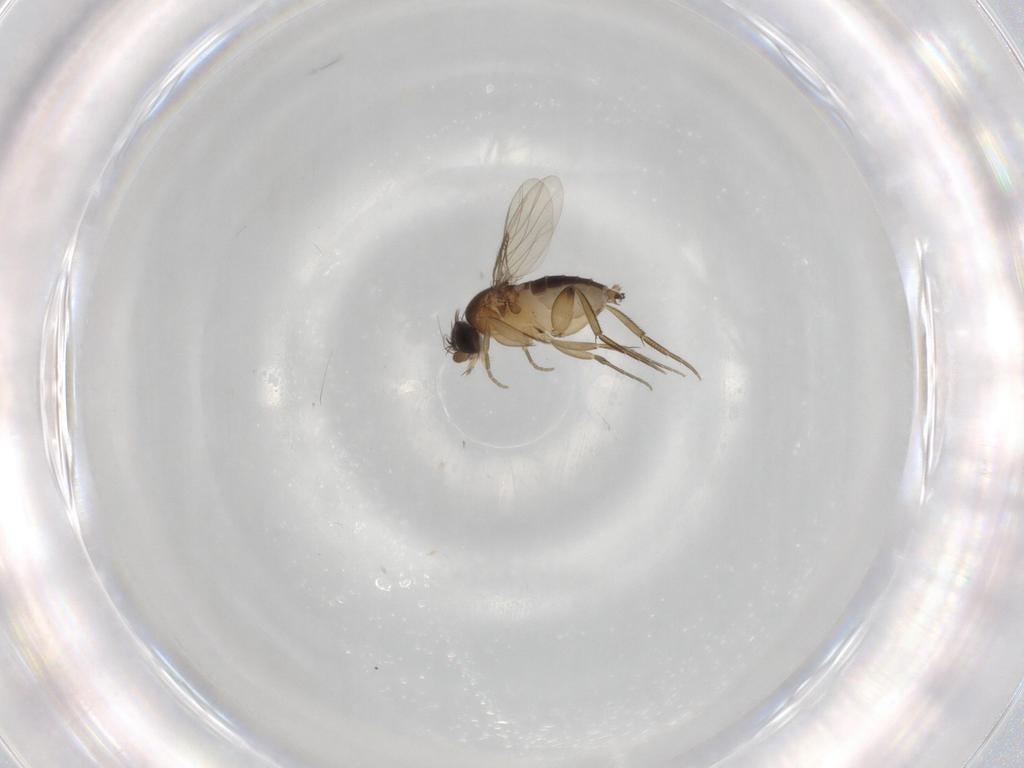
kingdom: Animalia
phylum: Arthropoda
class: Insecta
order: Diptera
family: Phoridae
